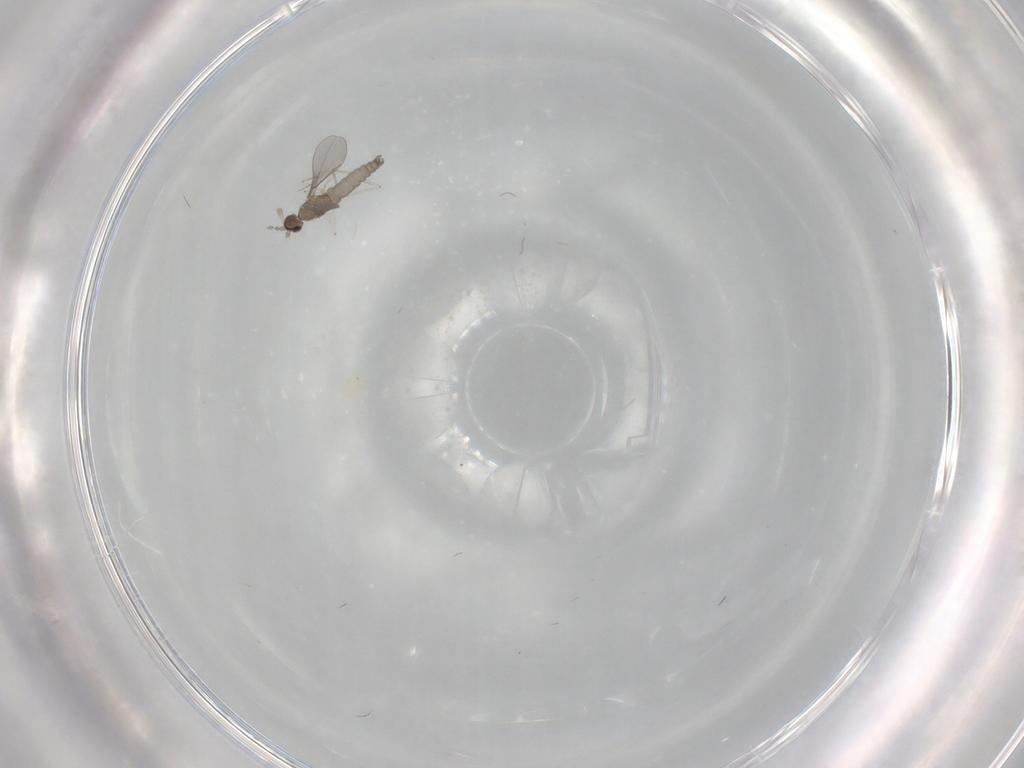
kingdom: Animalia
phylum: Arthropoda
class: Insecta
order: Diptera
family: Cecidomyiidae
